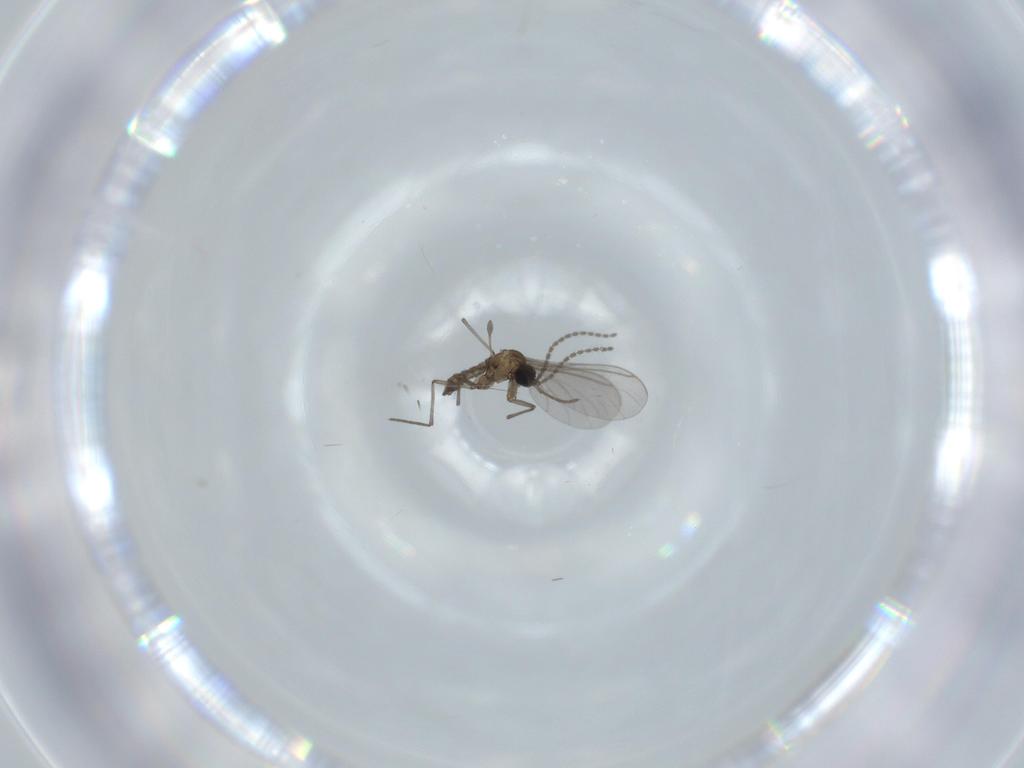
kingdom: Animalia
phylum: Arthropoda
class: Insecta
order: Diptera
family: Sciaridae
